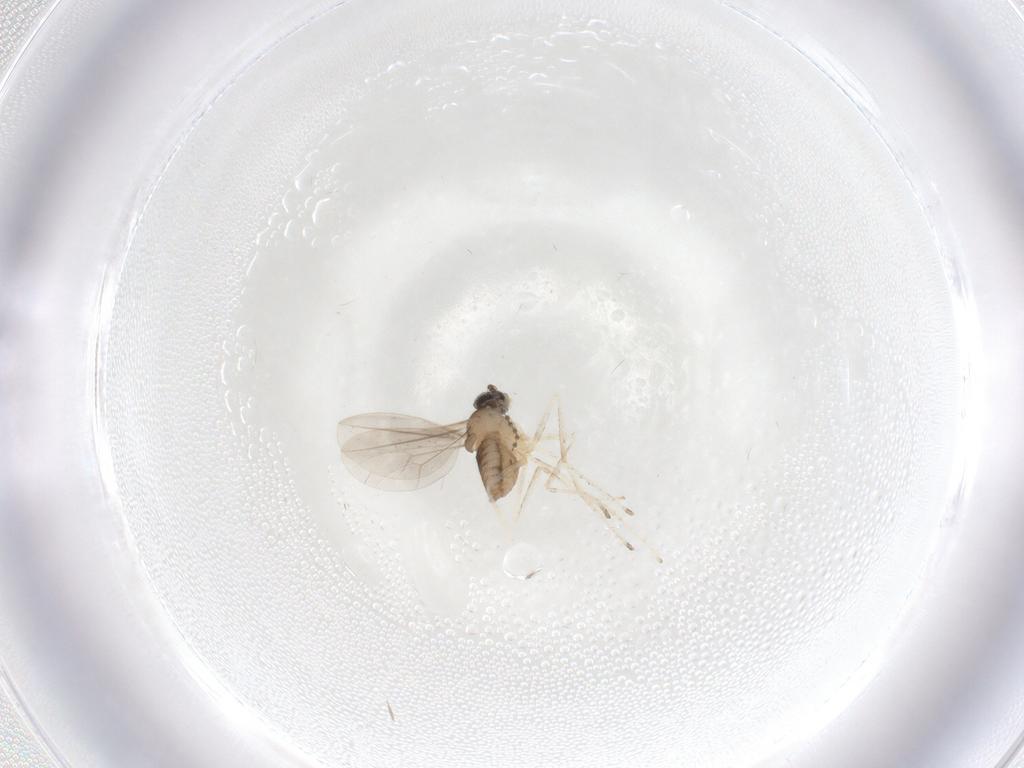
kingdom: Animalia
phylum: Arthropoda
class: Insecta
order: Diptera
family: Cecidomyiidae
